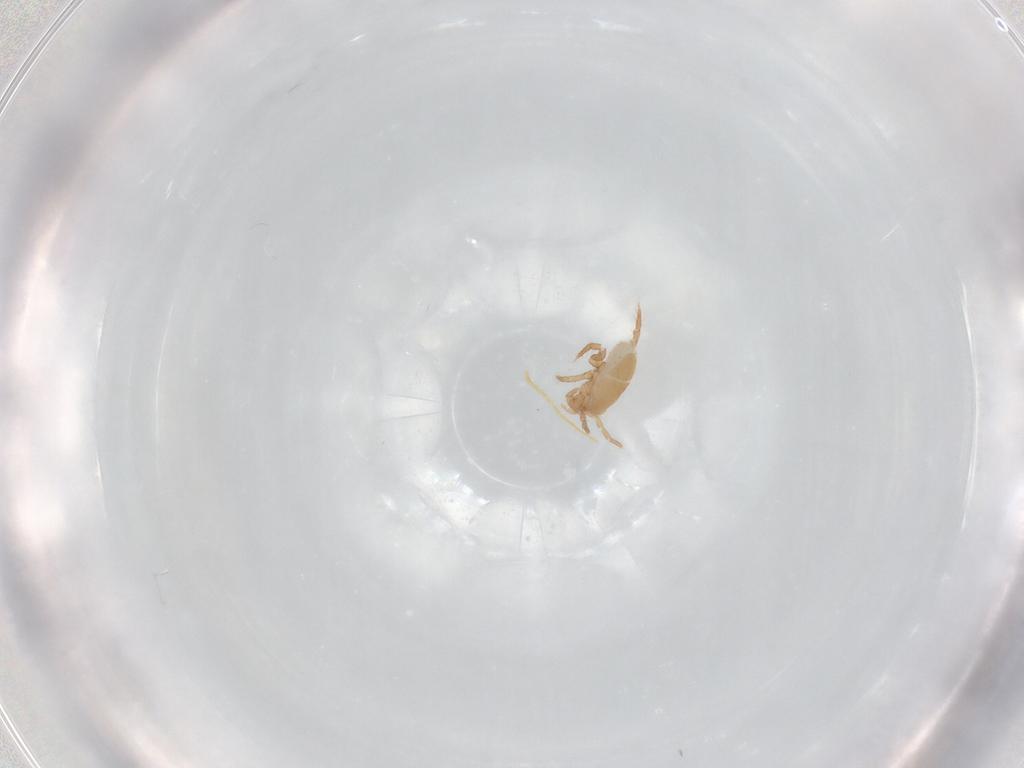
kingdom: Animalia
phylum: Arthropoda
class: Arachnida
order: Mesostigmata
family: Parasitidae
